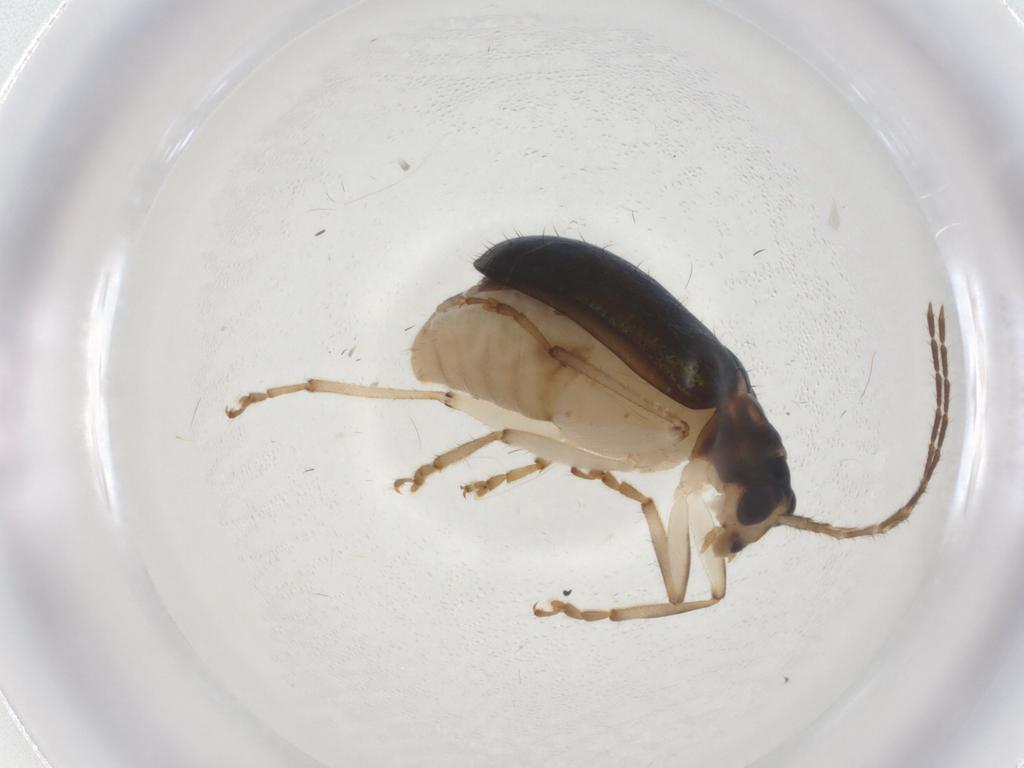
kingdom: Animalia
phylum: Arthropoda
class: Insecta
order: Coleoptera
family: Chrysomelidae
